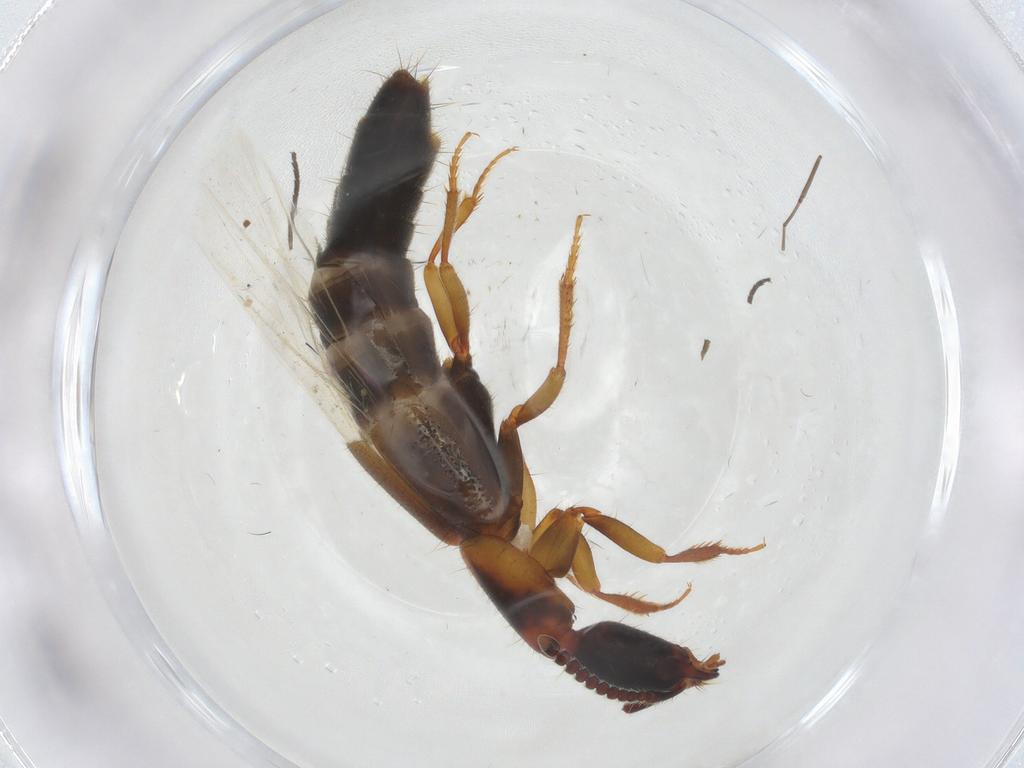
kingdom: Animalia
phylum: Arthropoda
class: Insecta
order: Coleoptera
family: Staphylinidae
